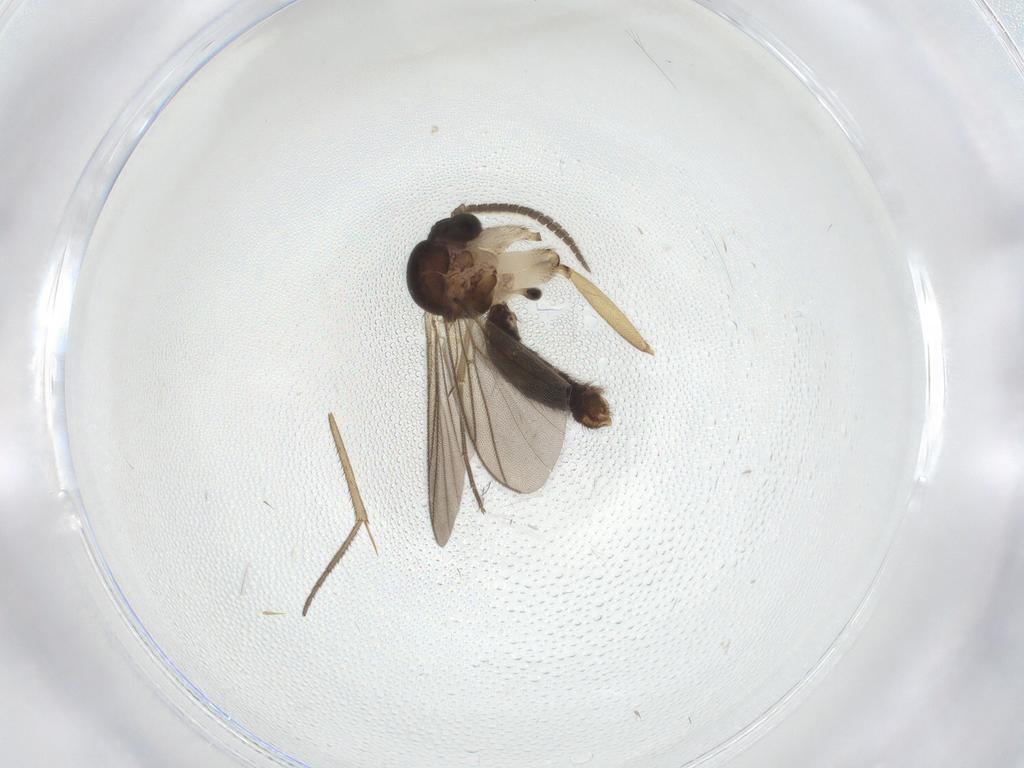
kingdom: Animalia
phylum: Arthropoda
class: Insecta
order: Diptera
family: Mycetophilidae
